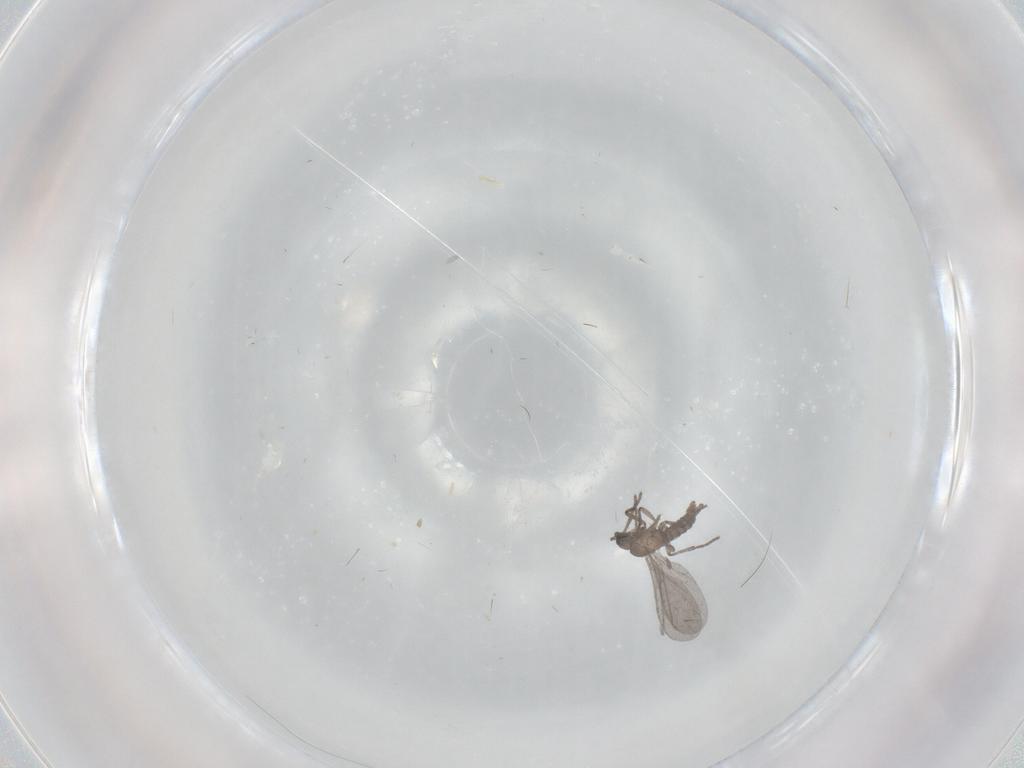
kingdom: Animalia
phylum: Arthropoda
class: Insecta
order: Diptera
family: Sciaridae
